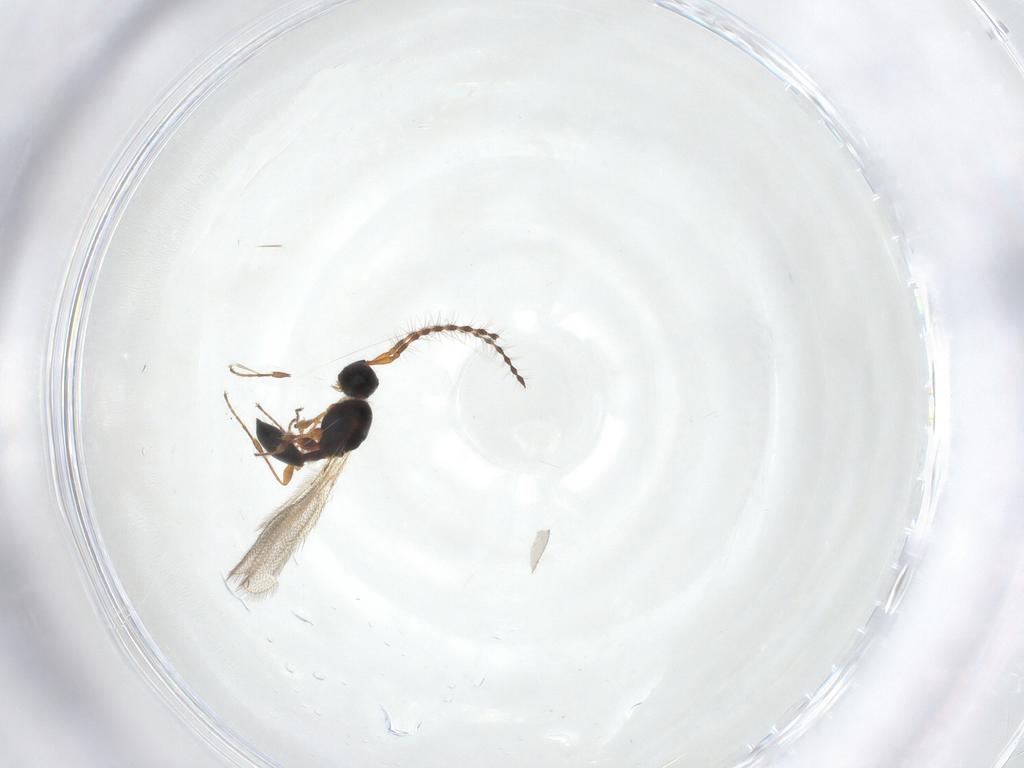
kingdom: Animalia
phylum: Arthropoda
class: Insecta
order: Hymenoptera
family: Diapriidae
